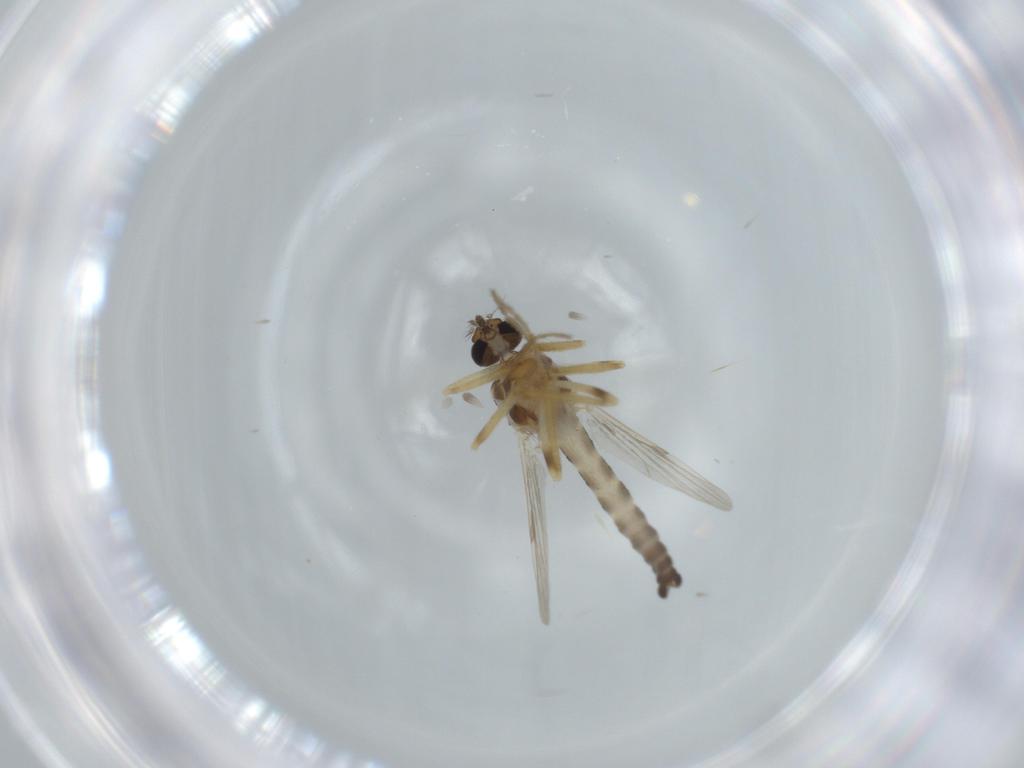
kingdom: Animalia
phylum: Arthropoda
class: Insecta
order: Diptera
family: Ceratopogonidae
